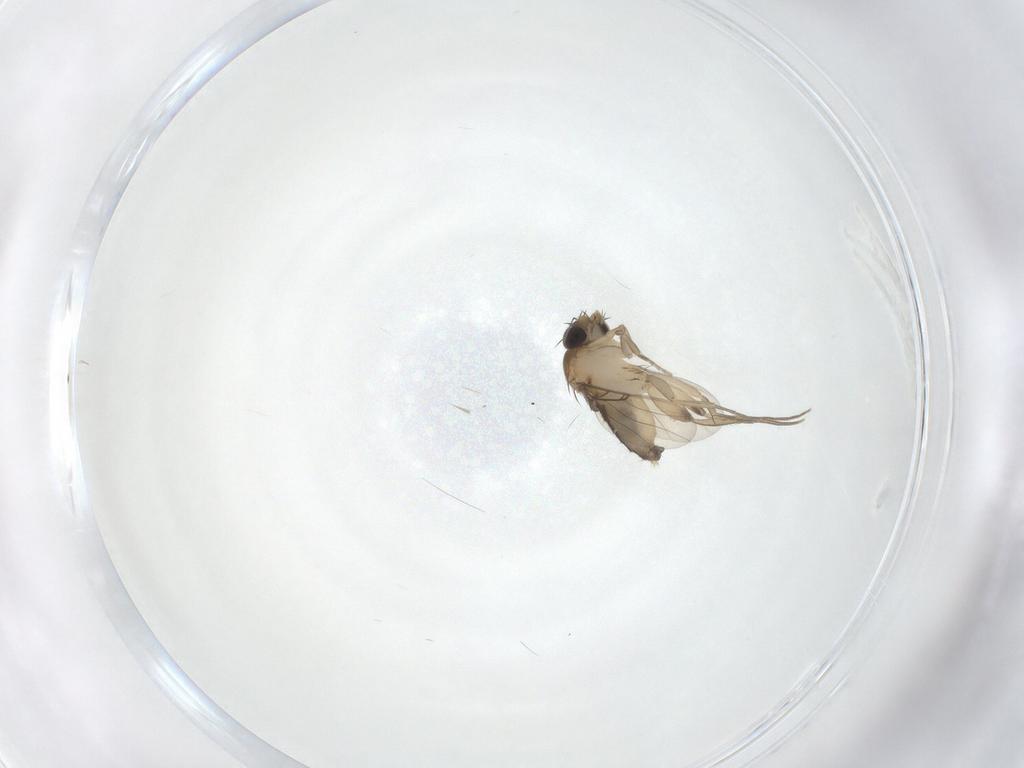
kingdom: Animalia
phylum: Arthropoda
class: Insecta
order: Diptera
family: Phoridae
